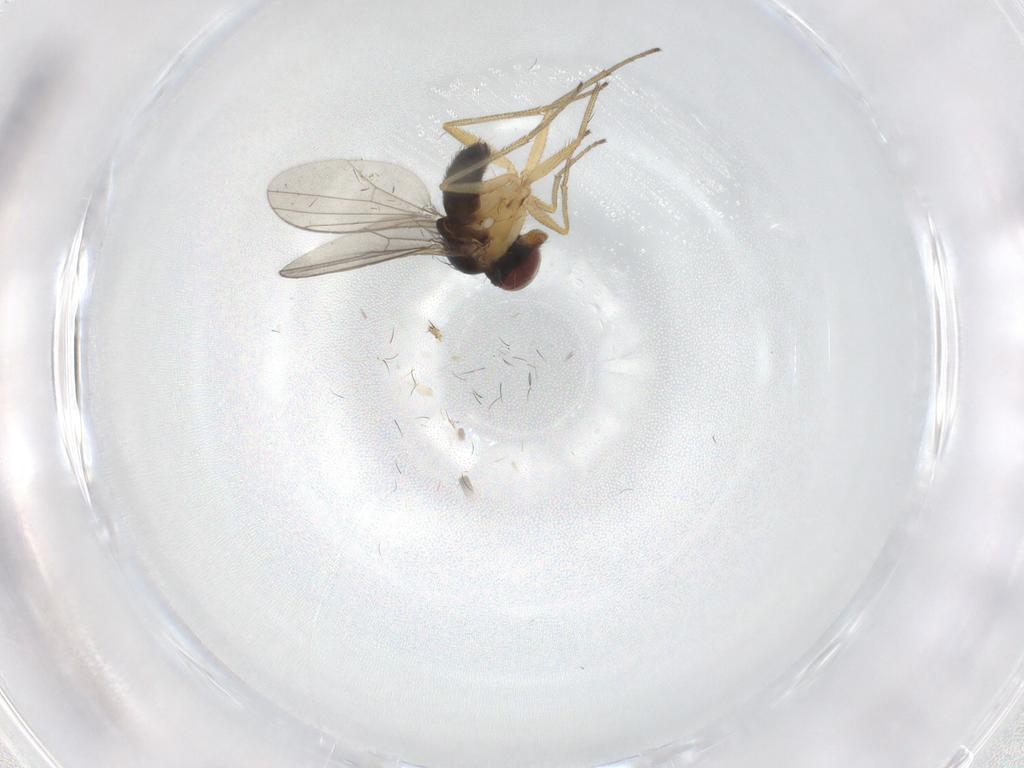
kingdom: Animalia
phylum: Arthropoda
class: Insecta
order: Diptera
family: Dolichopodidae
